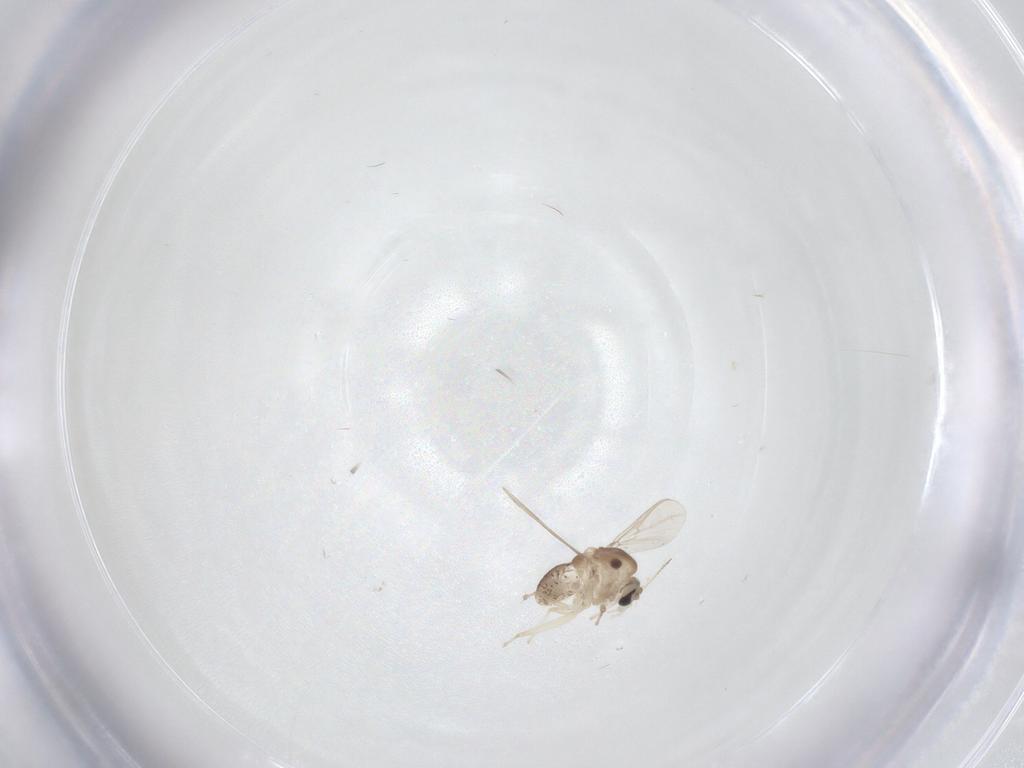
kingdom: Animalia
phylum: Arthropoda
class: Insecta
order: Diptera
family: Chironomidae
